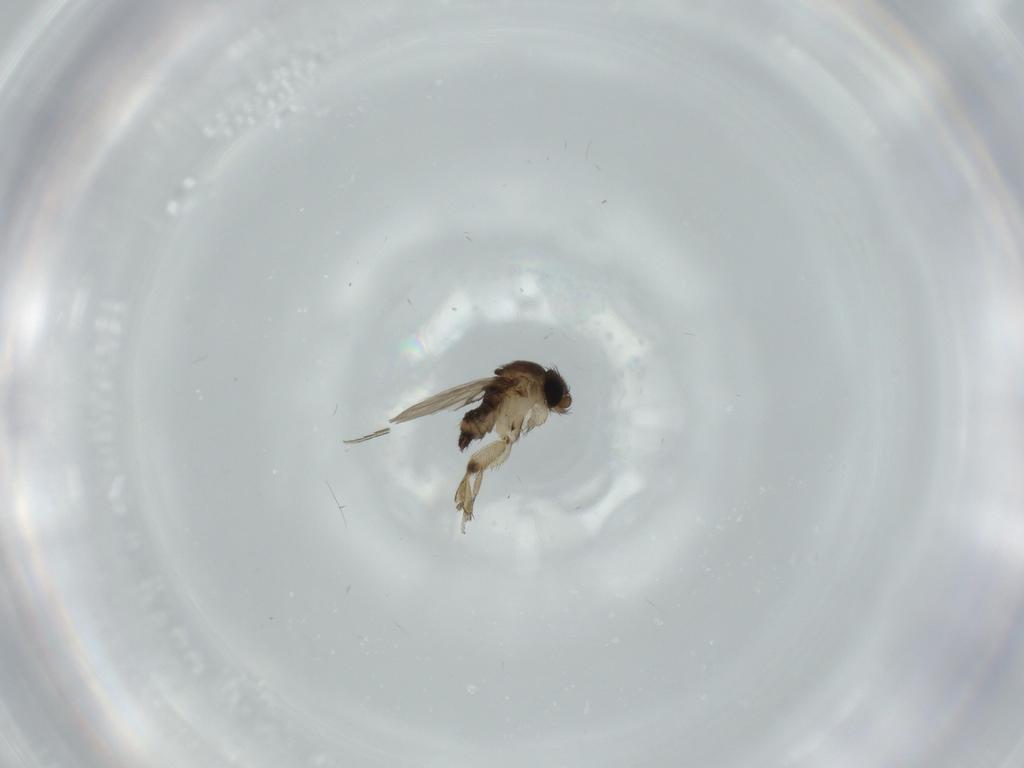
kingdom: Animalia
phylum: Arthropoda
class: Insecta
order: Diptera
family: Phoridae
